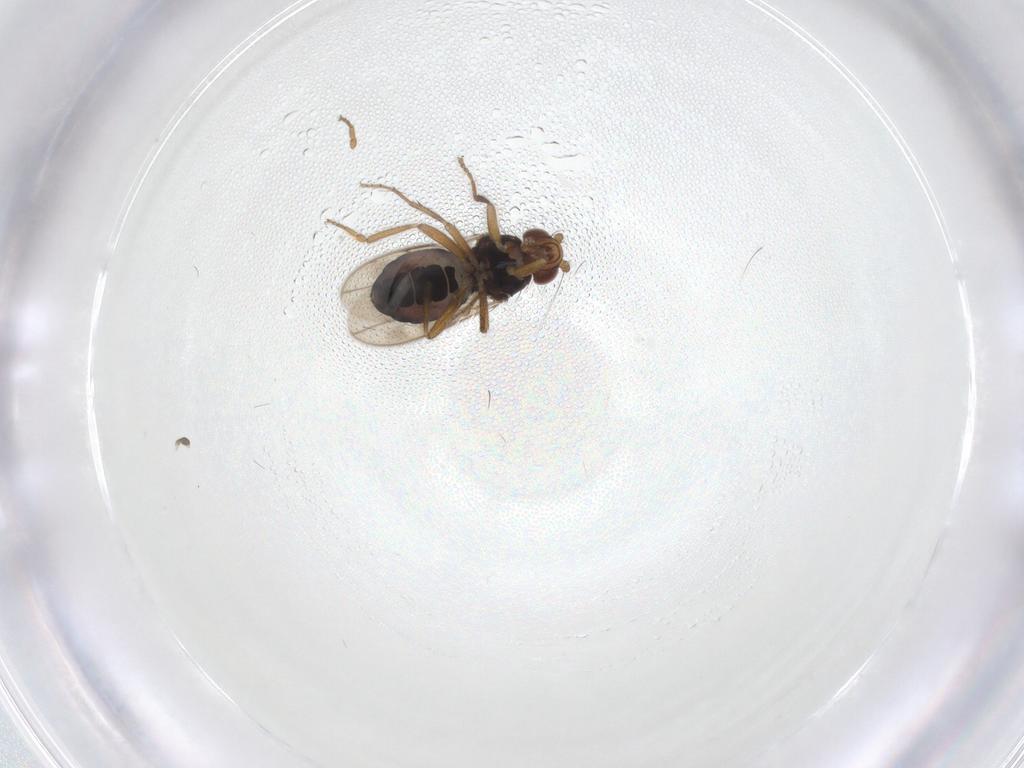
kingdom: Animalia
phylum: Arthropoda
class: Insecta
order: Diptera
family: Sphaeroceridae
